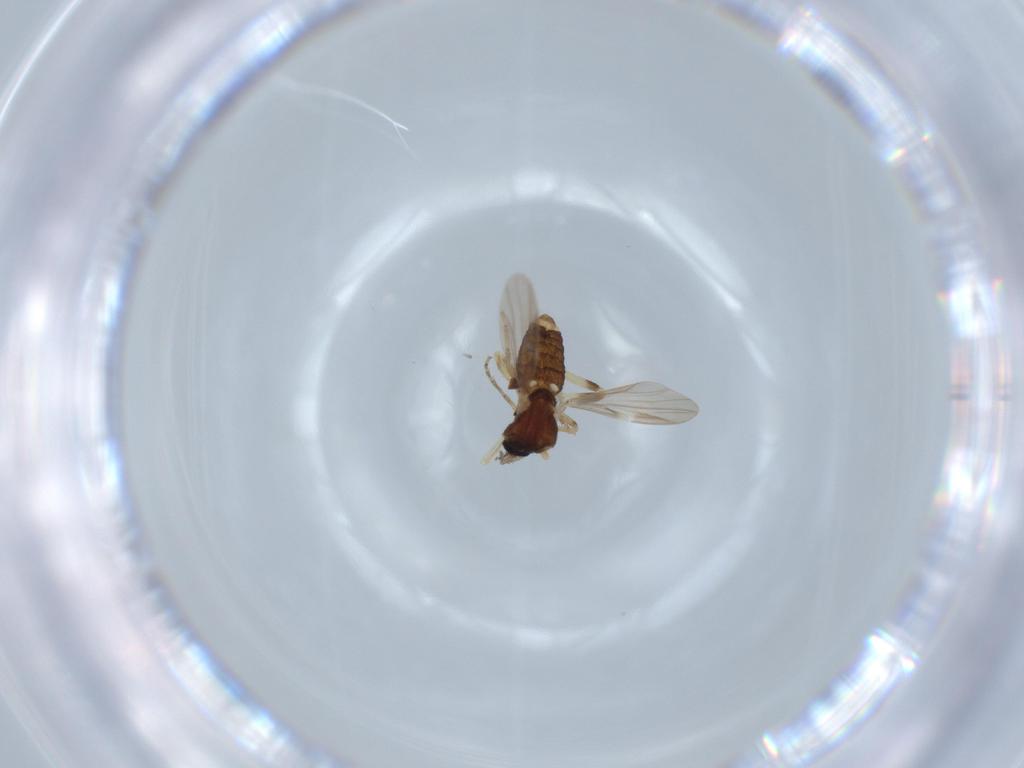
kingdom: Animalia
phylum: Arthropoda
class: Insecta
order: Diptera
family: Ceratopogonidae
